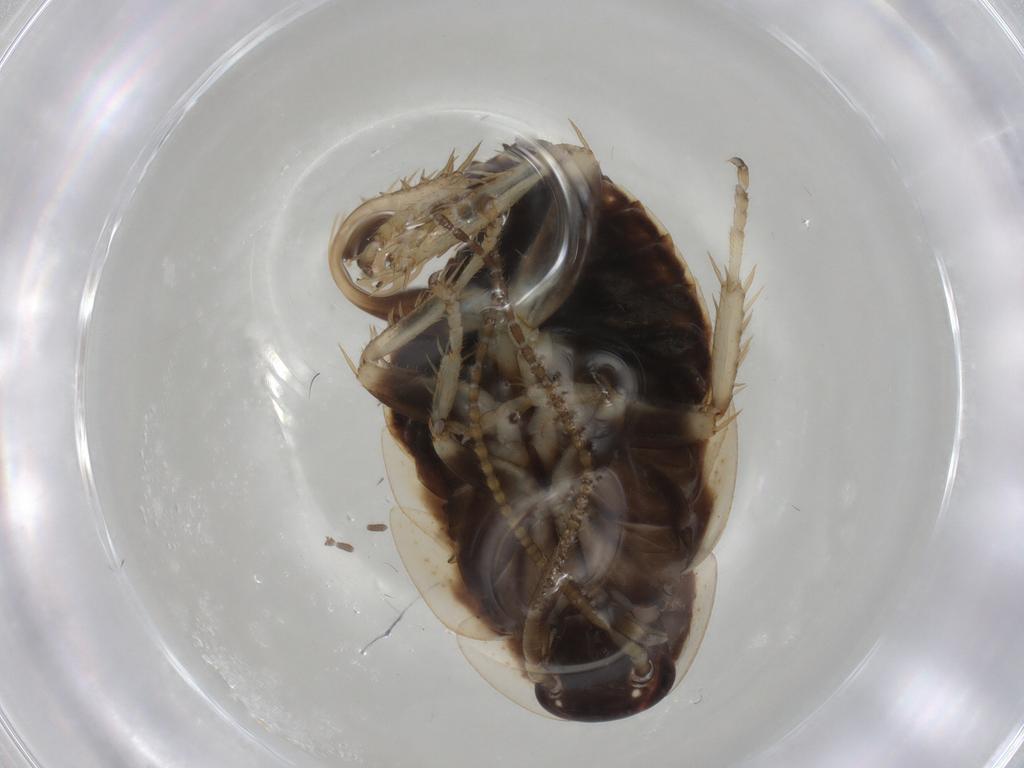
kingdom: Animalia
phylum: Arthropoda
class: Insecta
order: Blattodea
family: Ectobiidae
